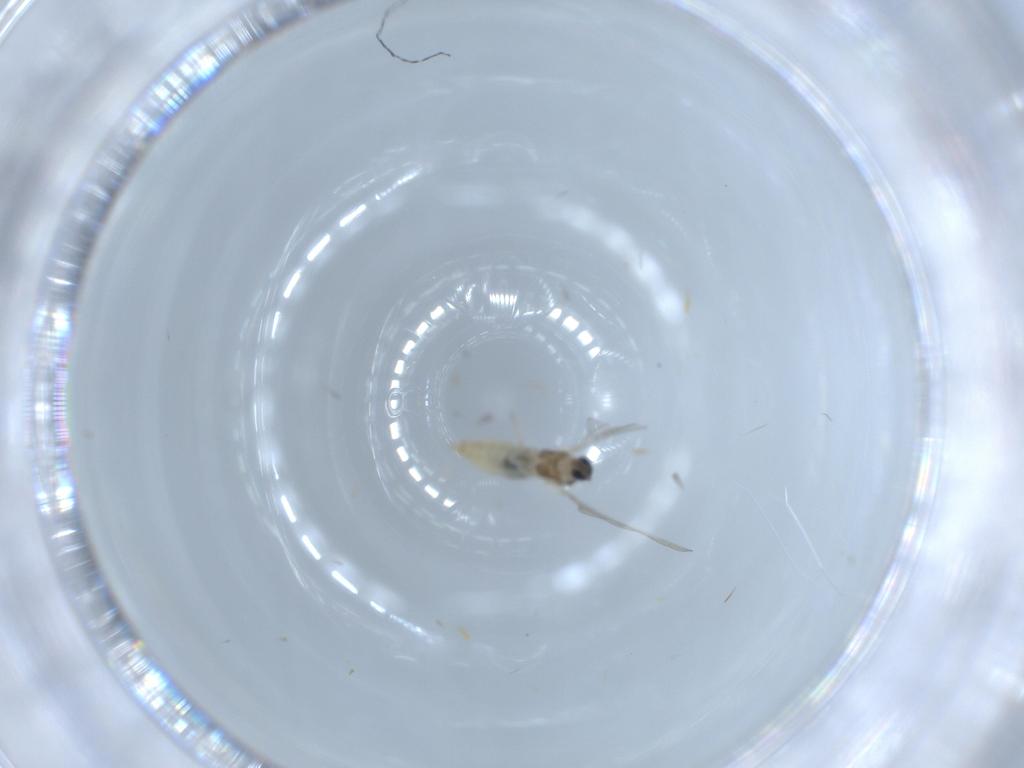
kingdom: Animalia
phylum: Arthropoda
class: Insecta
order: Diptera
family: Cecidomyiidae
